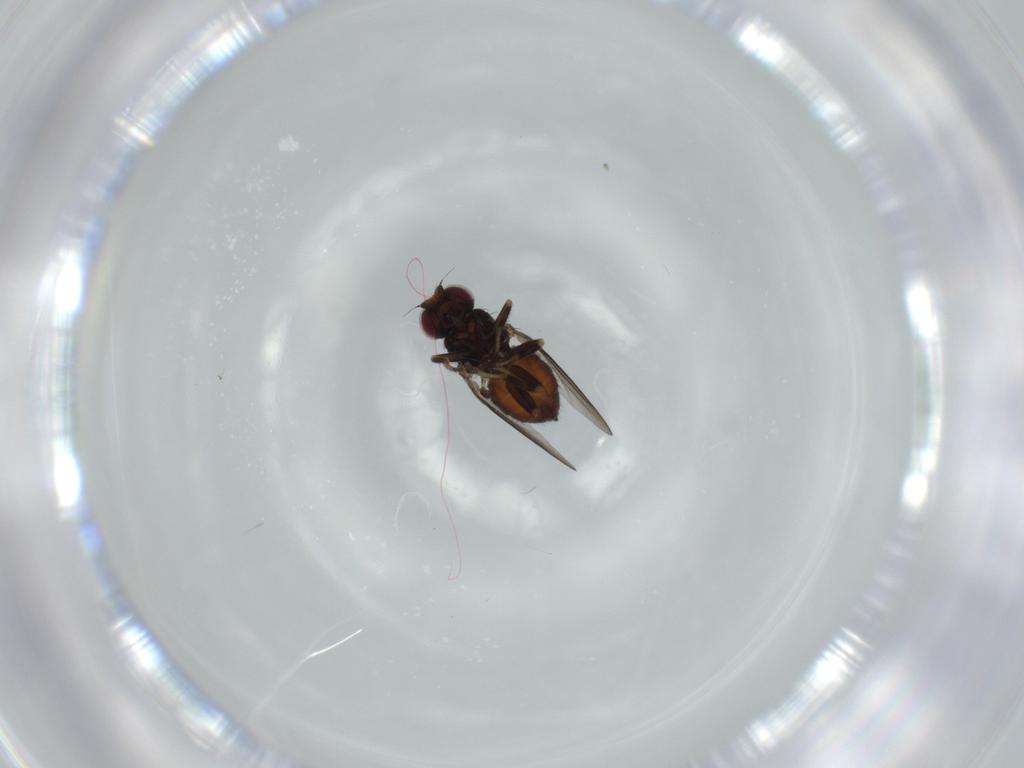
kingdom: Animalia
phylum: Arthropoda
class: Insecta
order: Diptera
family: Chloropidae
